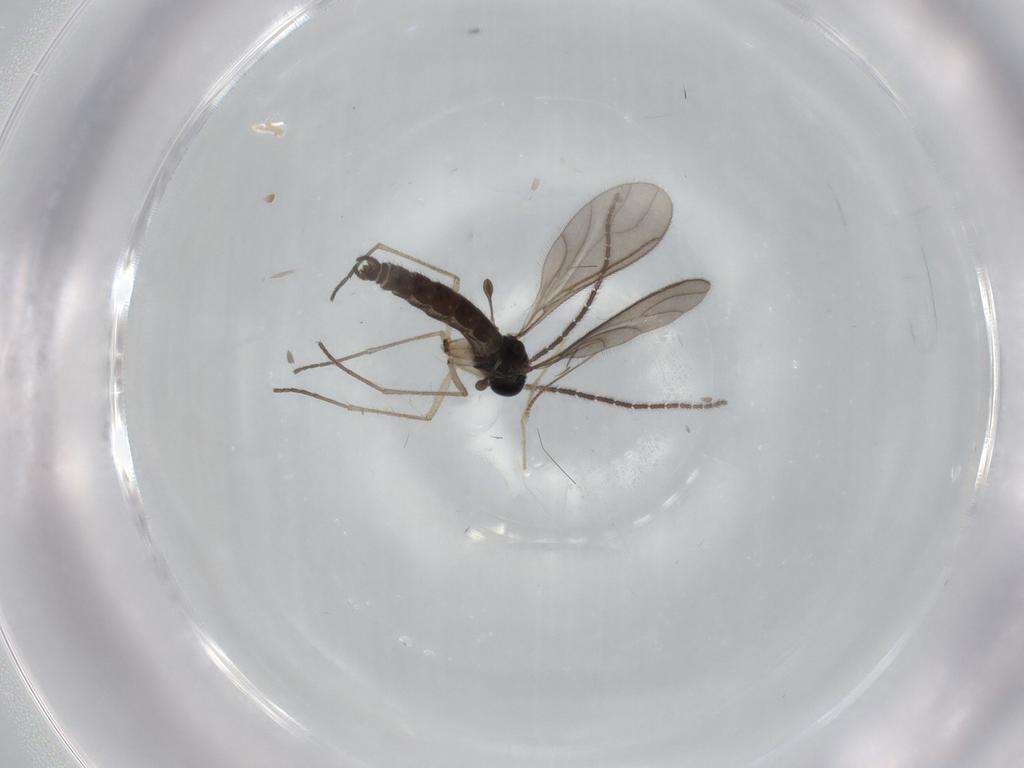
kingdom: Animalia
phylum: Arthropoda
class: Insecta
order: Diptera
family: Sciaridae
